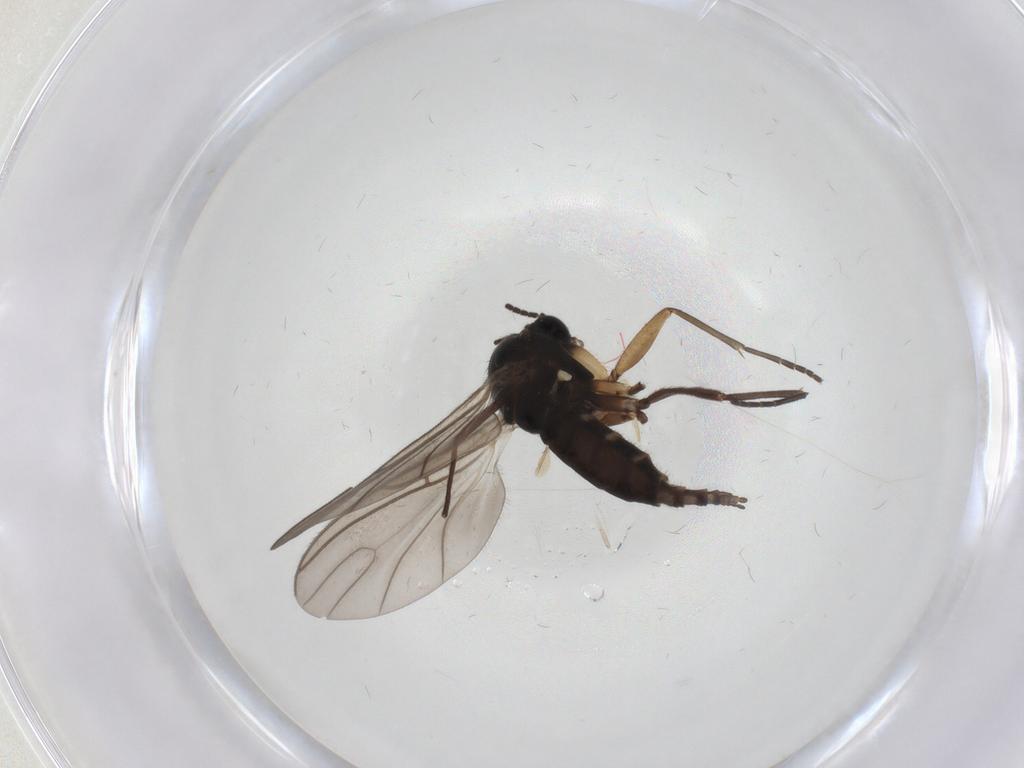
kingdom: Animalia
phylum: Arthropoda
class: Insecta
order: Diptera
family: Sciaridae
